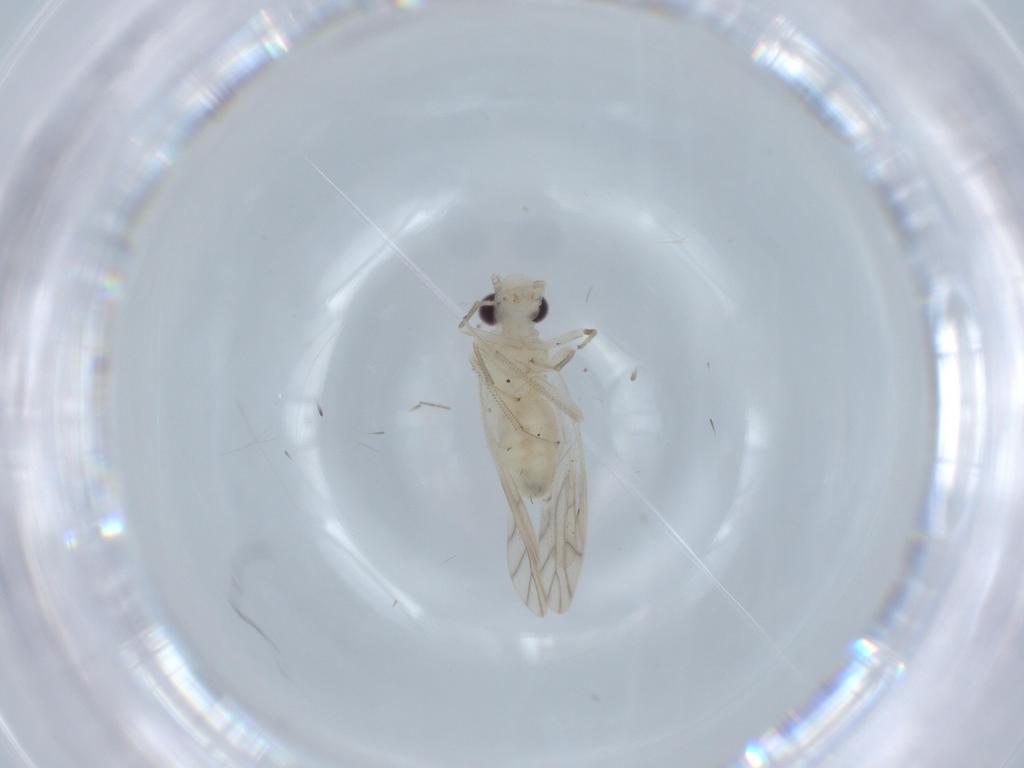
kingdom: Animalia
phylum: Arthropoda
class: Insecta
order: Psocodea
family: Caeciliusidae
